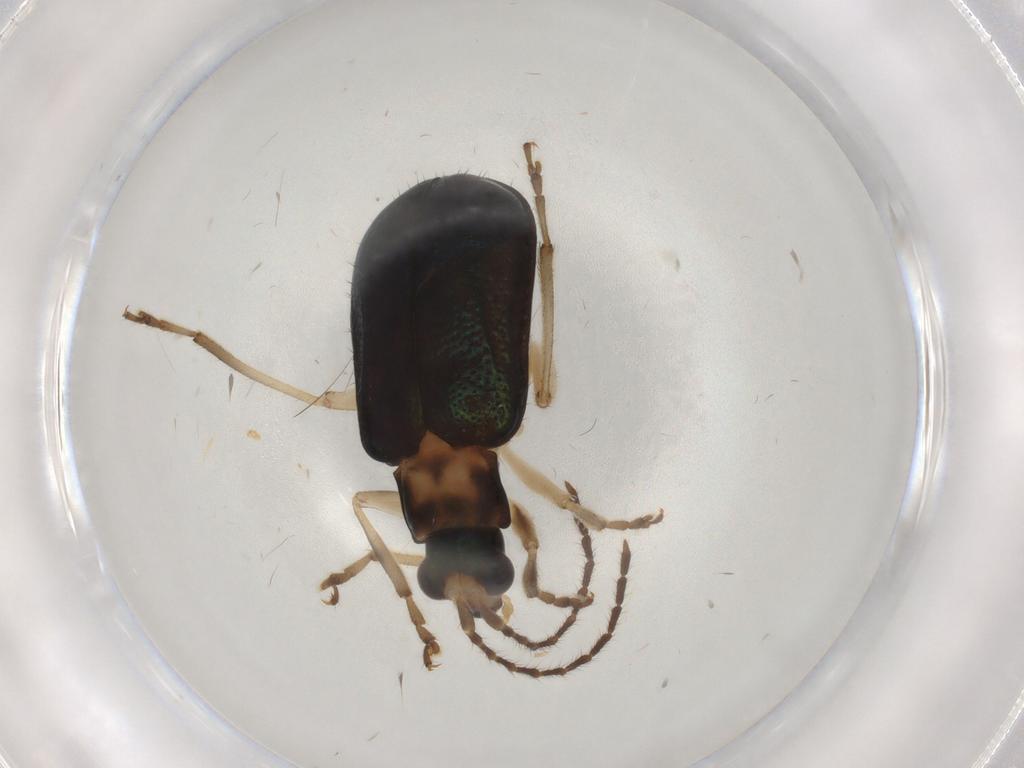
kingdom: Animalia
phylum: Arthropoda
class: Insecta
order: Coleoptera
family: Chrysomelidae
